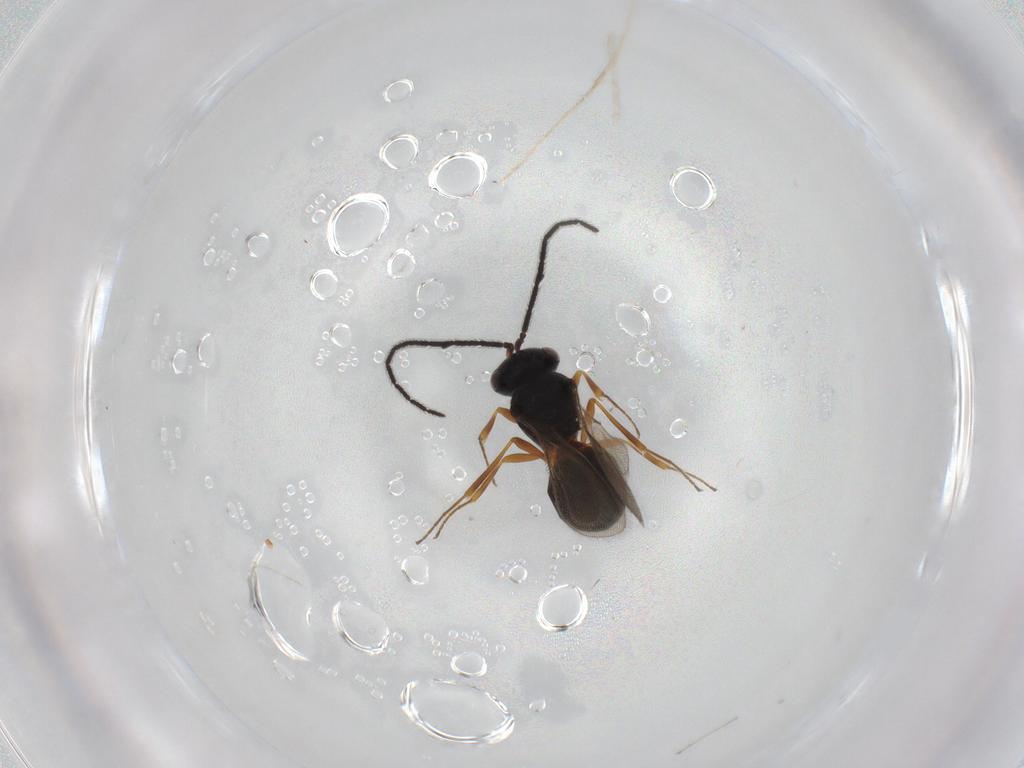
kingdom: Animalia
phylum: Arthropoda
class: Insecta
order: Hymenoptera
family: Scelionidae
